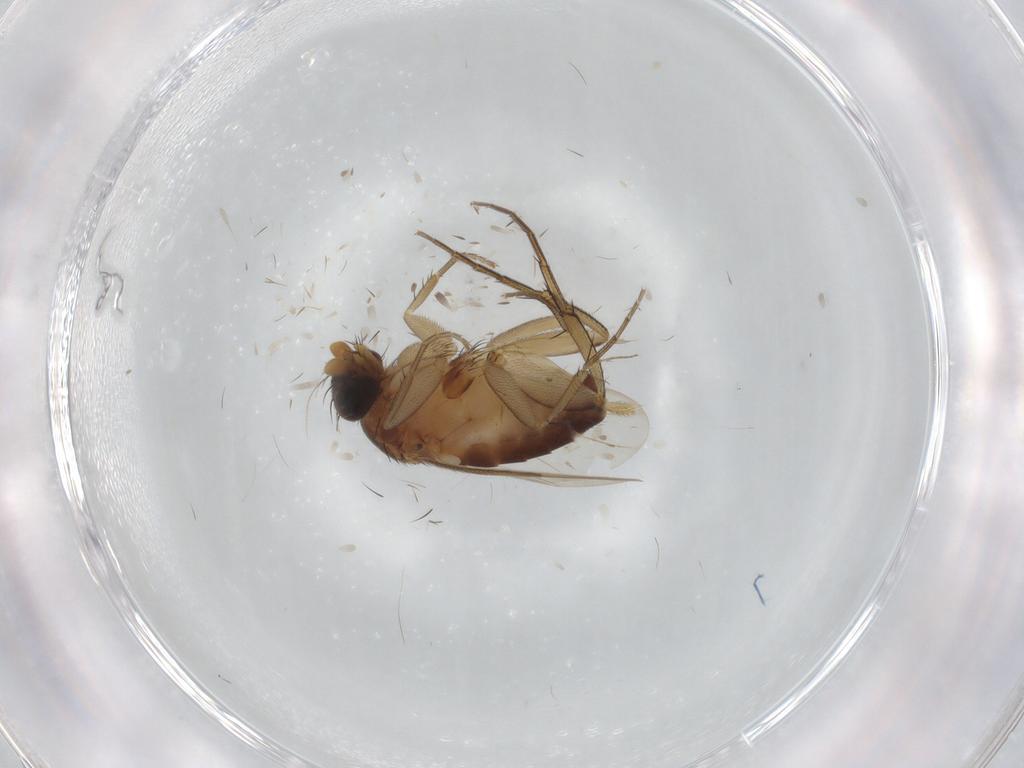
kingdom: Animalia
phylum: Arthropoda
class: Insecta
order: Diptera
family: Phoridae
